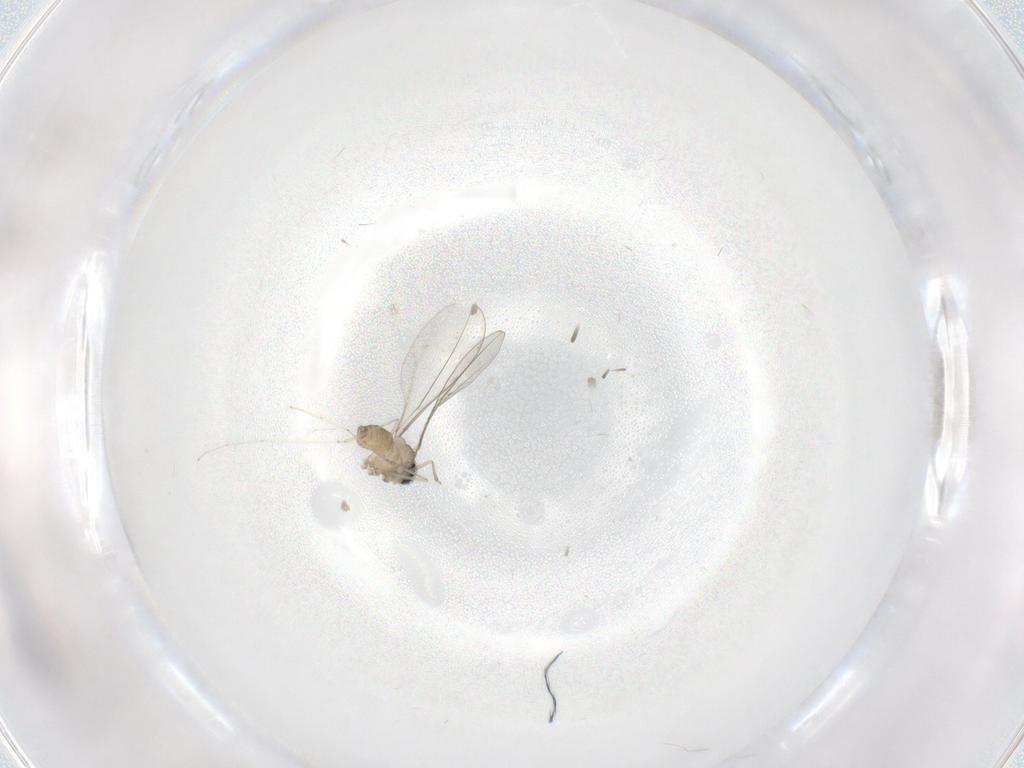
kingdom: Animalia
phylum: Arthropoda
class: Insecta
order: Diptera
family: Cecidomyiidae
